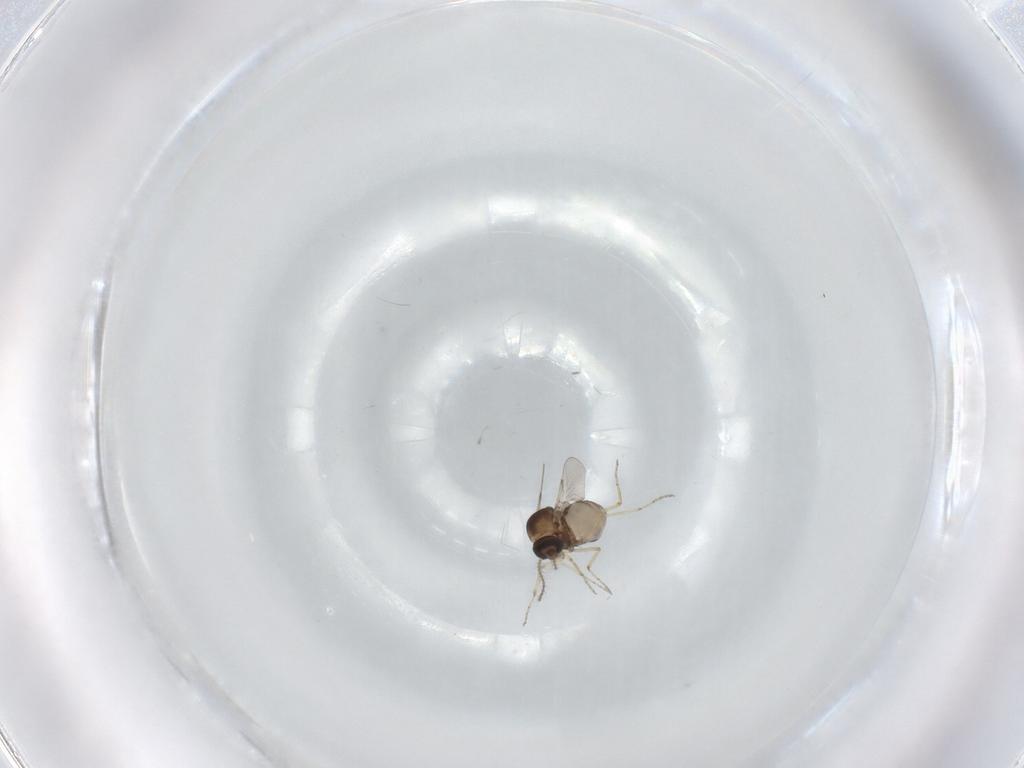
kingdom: Animalia
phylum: Arthropoda
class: Insecta
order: Diptera
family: Ceratopogonidae
